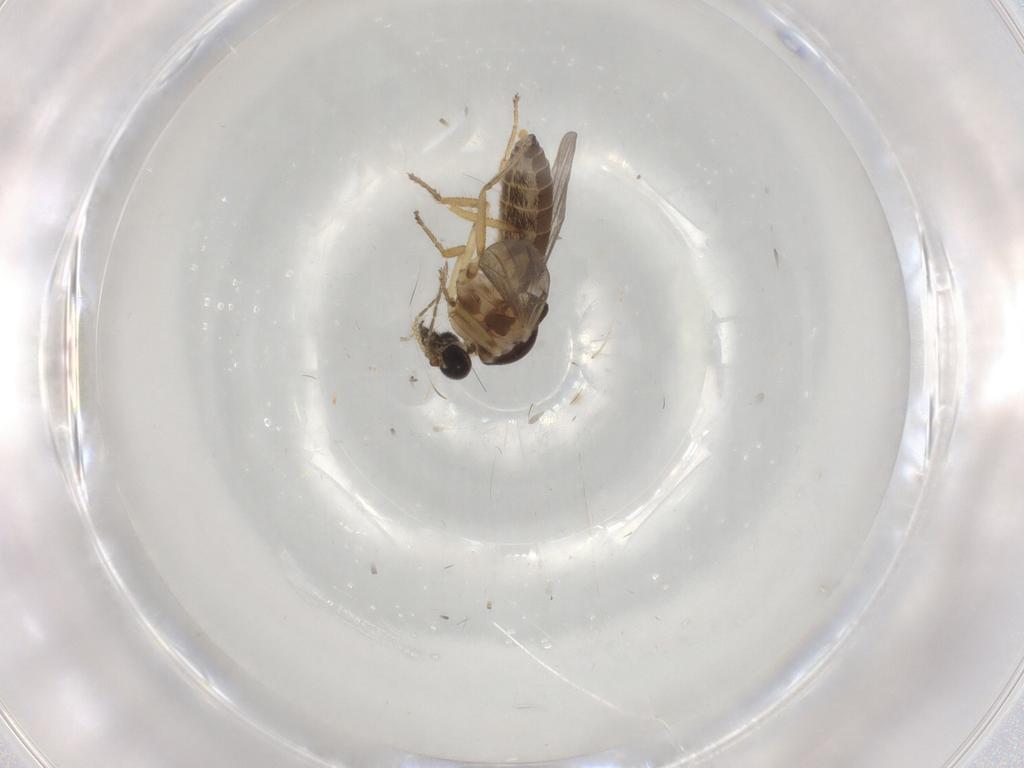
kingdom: Animalia
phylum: Arthropoda
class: Insecta
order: Diptera
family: Ceratopogonidae
